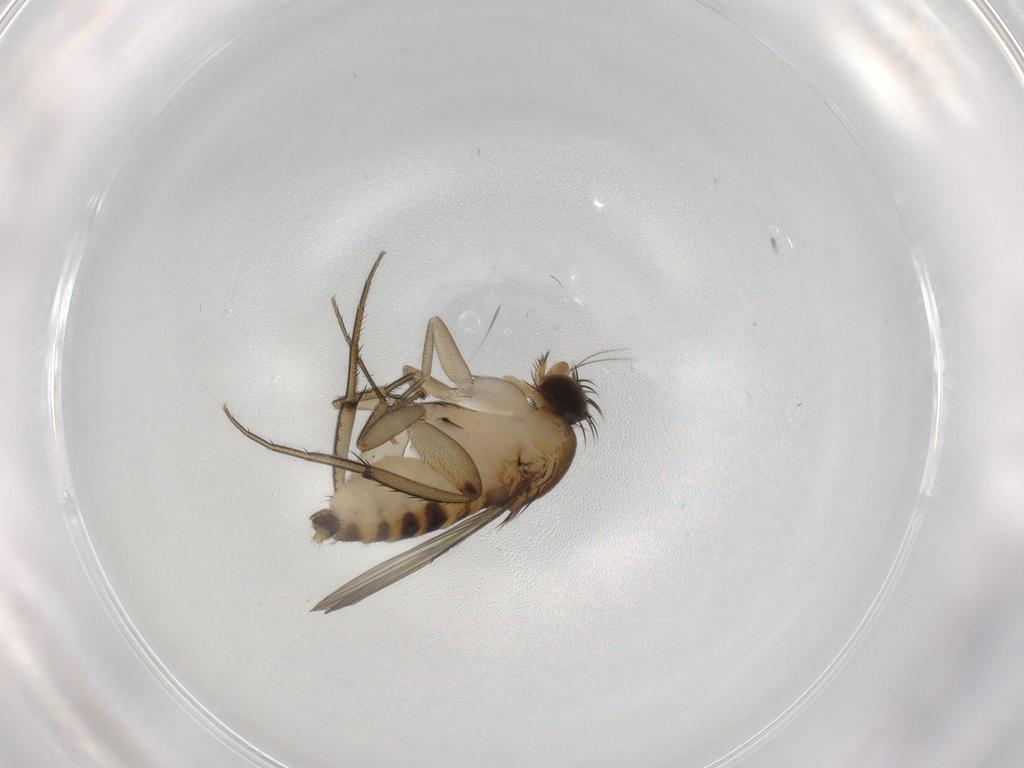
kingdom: Animalia
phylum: Arthropoda
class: Insecta
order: Diptera
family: Phoridae
